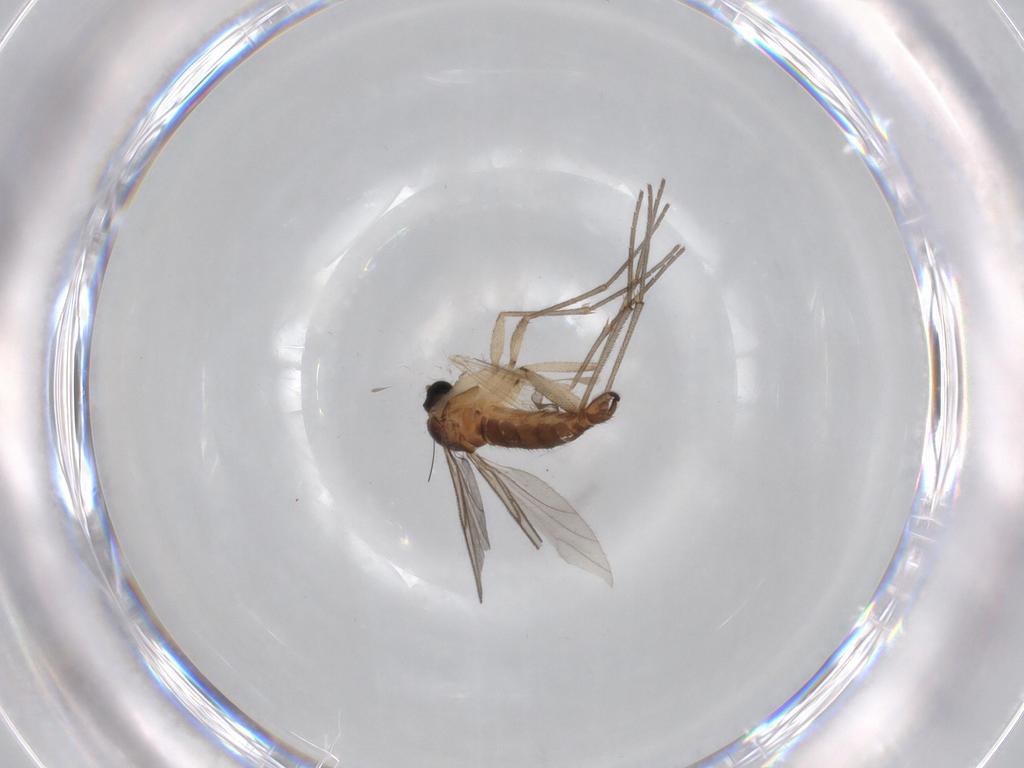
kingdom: Animalia
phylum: Arthropoda
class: Insecta
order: Diptera
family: Sciaridae
